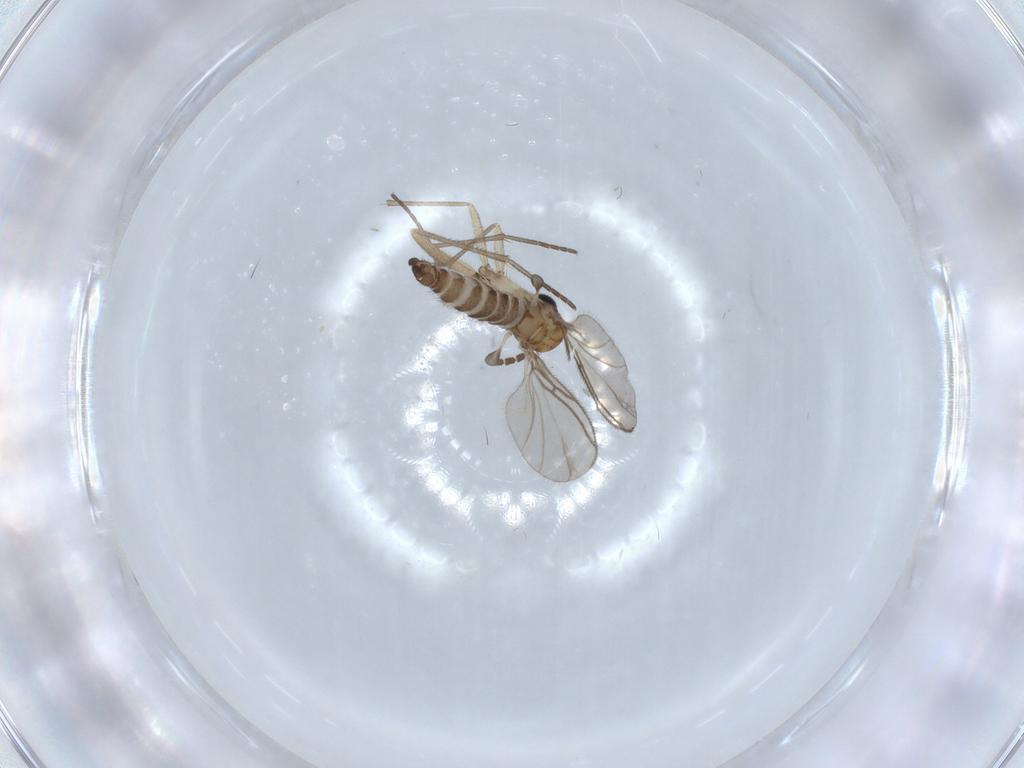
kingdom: Animalia
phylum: Arthropoda
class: Insecta
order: Diptera
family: Sciaridae
